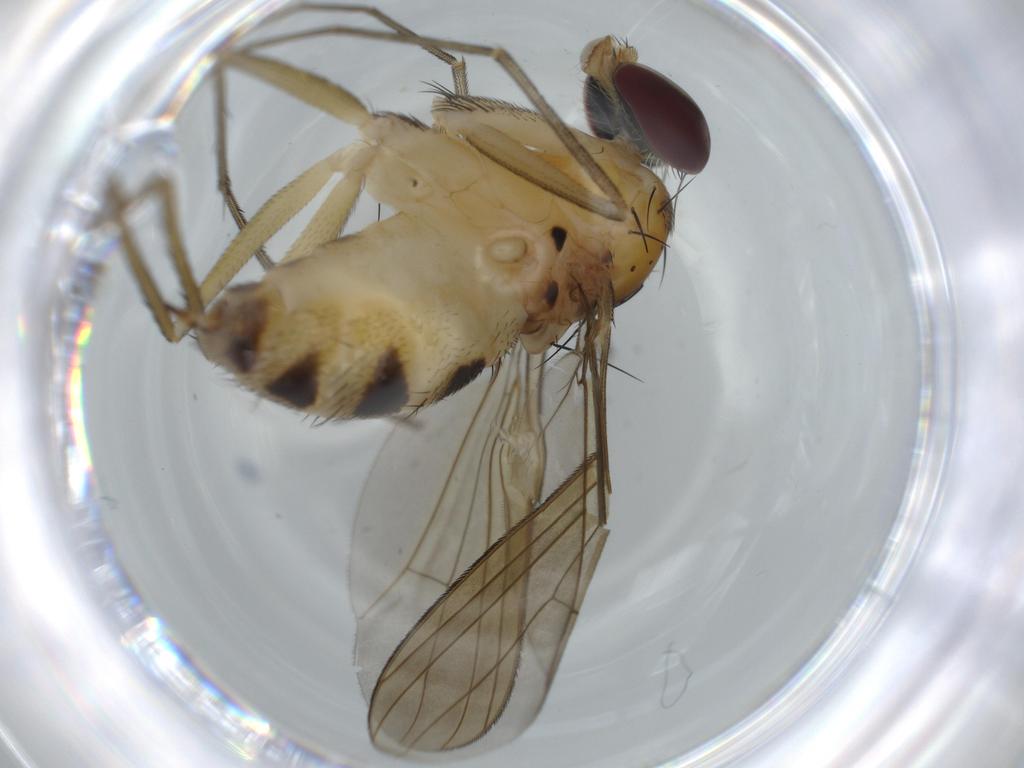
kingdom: Animalia
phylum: Arthropoda
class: Insecta
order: Diptera
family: Dolichopodidae
